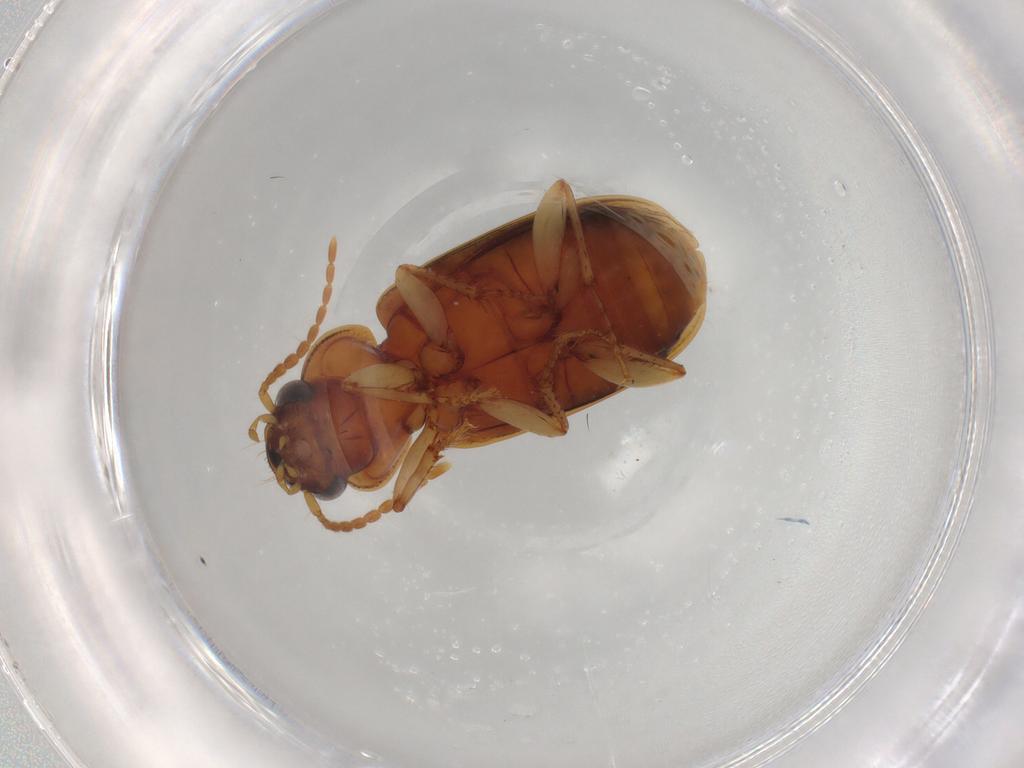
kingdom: Animalia
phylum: Arthropoda
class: Insecta
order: Coleoptera
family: Carabidae
